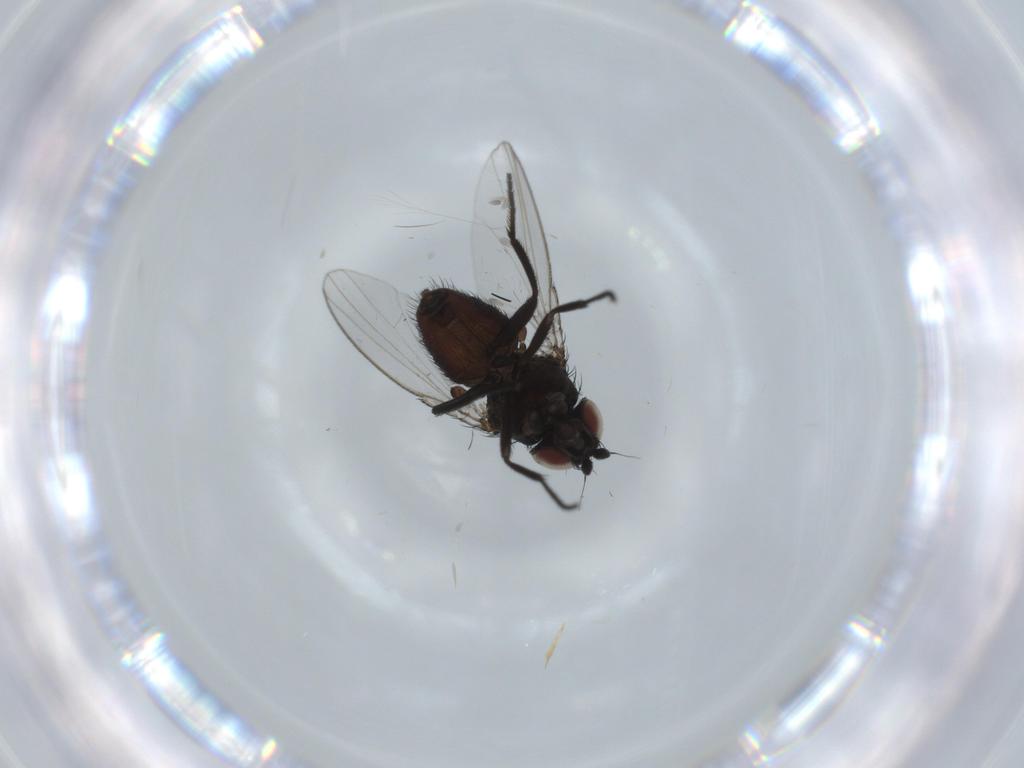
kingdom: Animalia
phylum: Arthropoda
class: Insecta
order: Diptera
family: Milichiidae
